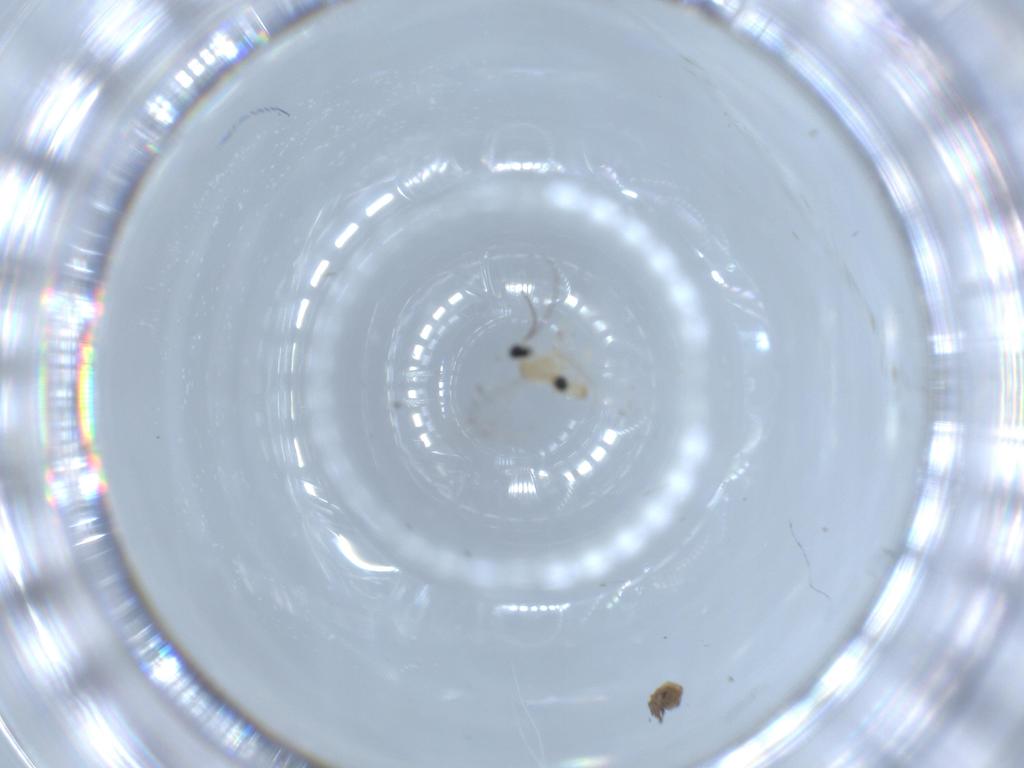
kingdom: Animalia
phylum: Arthropoda
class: Insecta
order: Diptera
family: Cecidomyiidae
